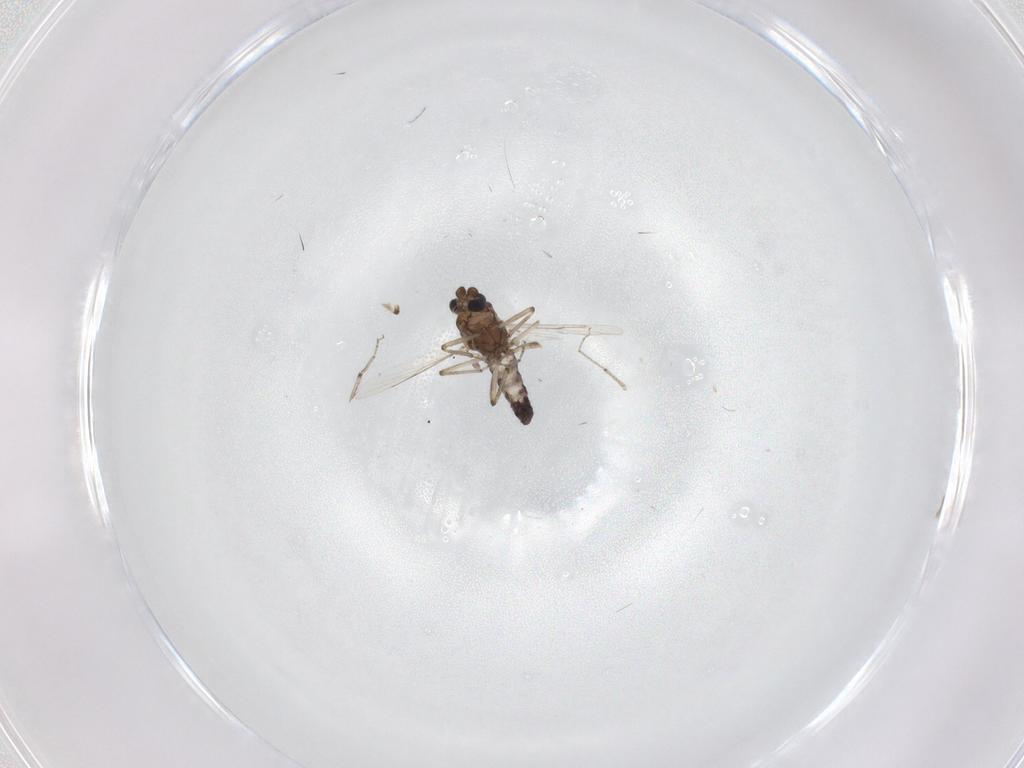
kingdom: Animalia
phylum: Arthropoda
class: Insecta
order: Diptera
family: Ceratopogonidae
